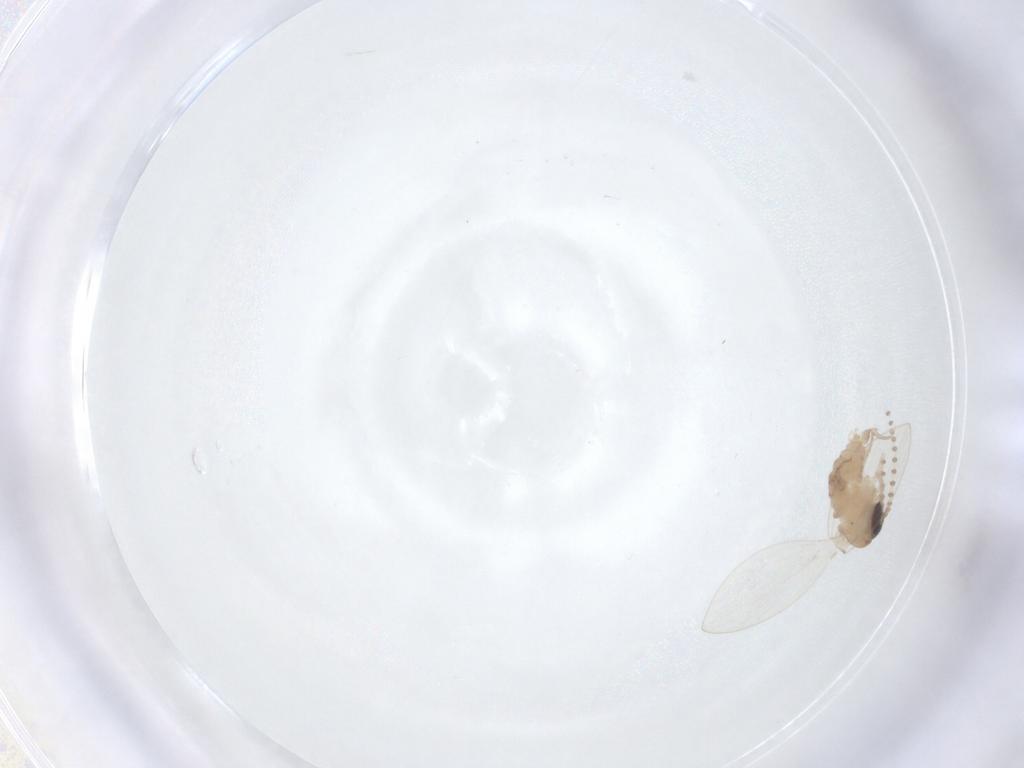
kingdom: Animalia
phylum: Arthropoda
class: Insecta
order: Diptera
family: Psychodidae
